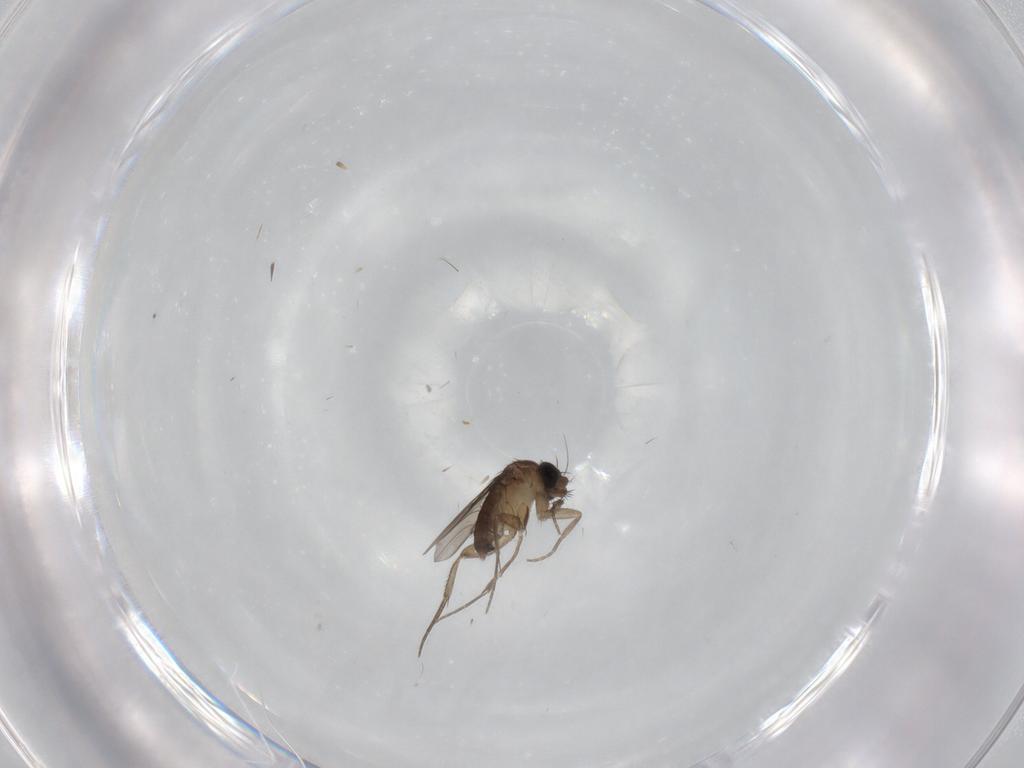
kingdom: Animalia
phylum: Arthropoda
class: Insecta
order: Diptera
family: Phoridae
